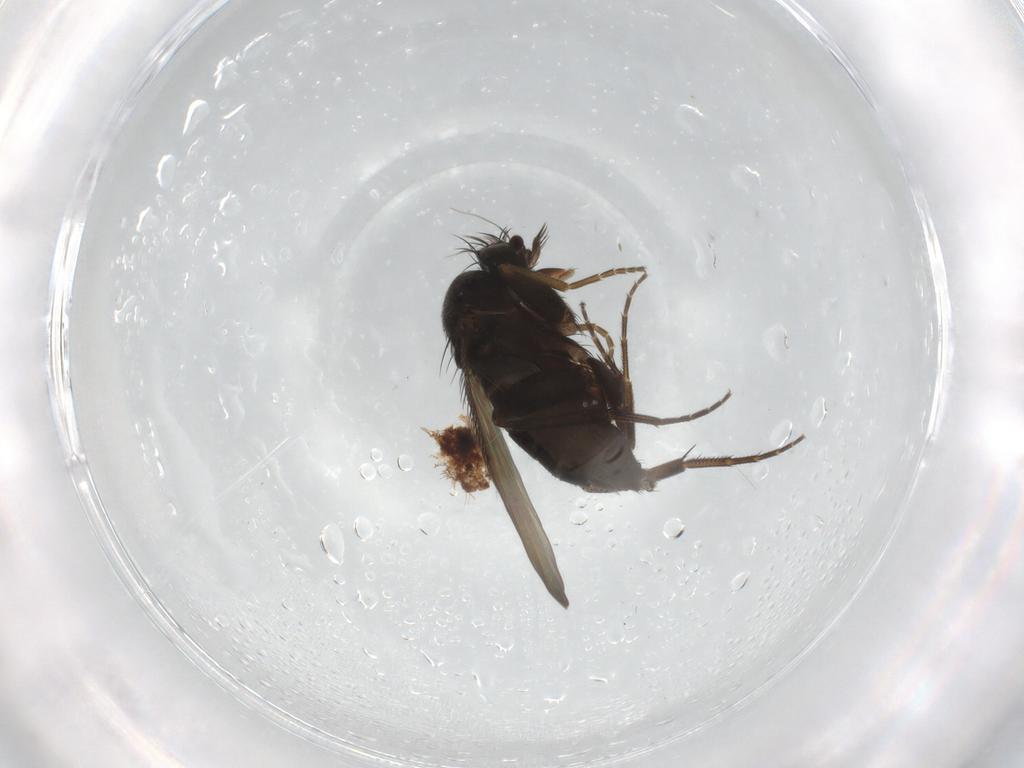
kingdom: Animalia
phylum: Arthropoda
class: Insecta
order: Diptera
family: Phoridae
